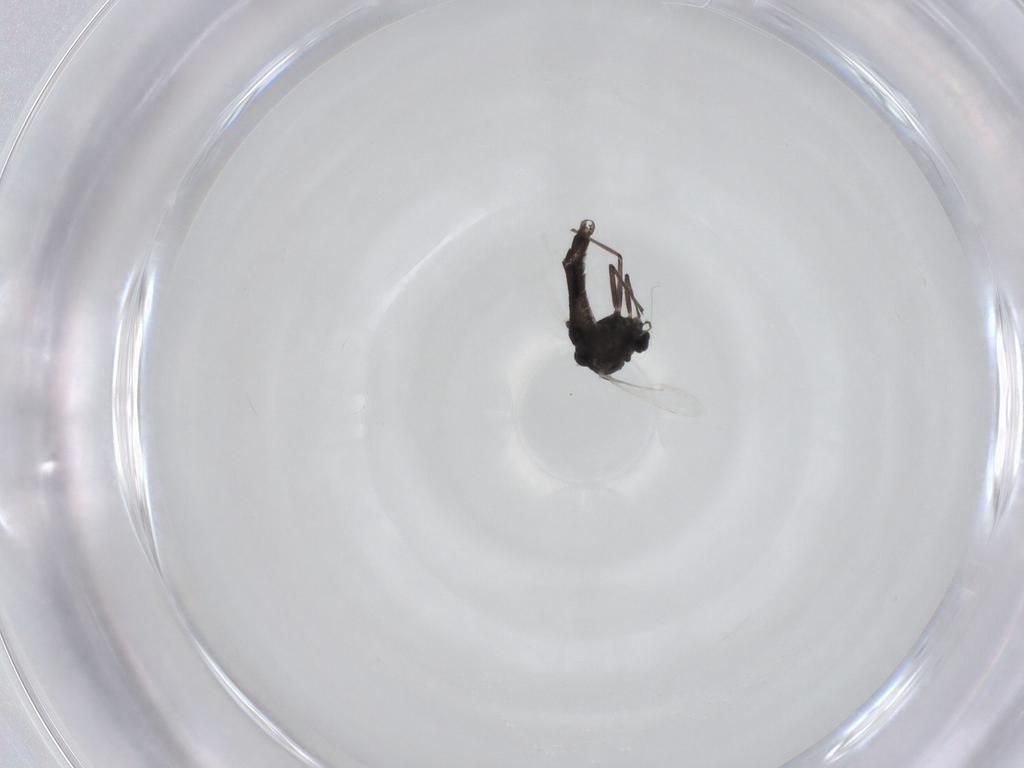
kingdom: Animalia
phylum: Arthropoda
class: Insecta
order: Diptera
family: Chironomidae
